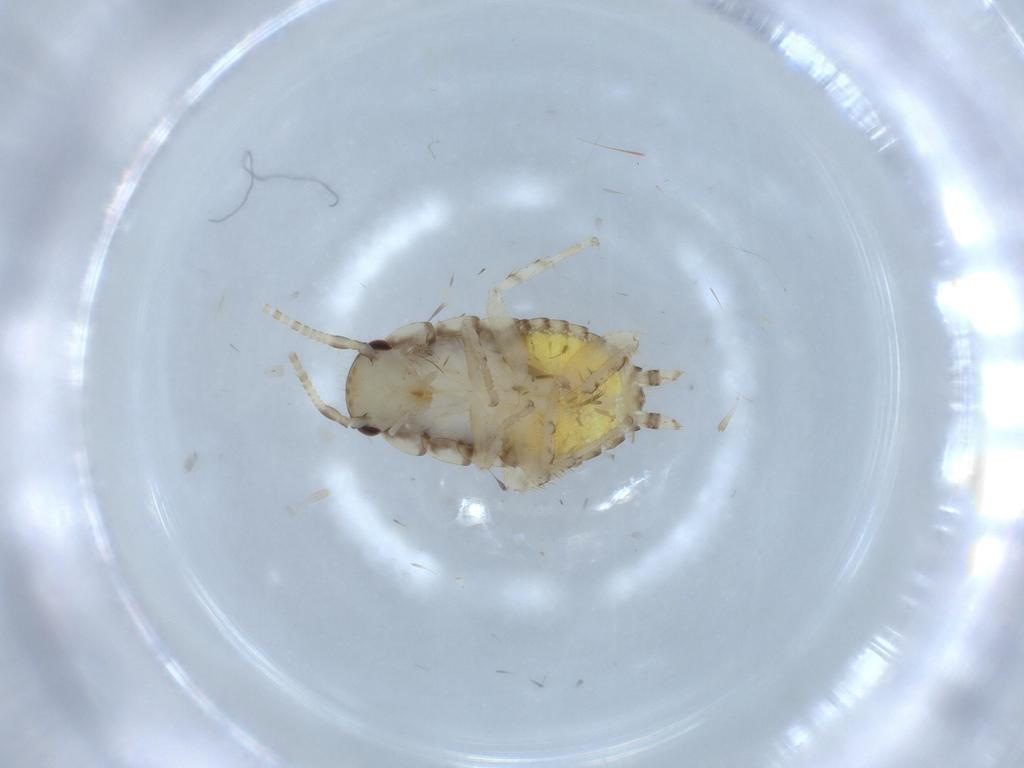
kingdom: Animalia
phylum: Arthropoda
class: Insecta
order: Blattodea
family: Ectobiidae
